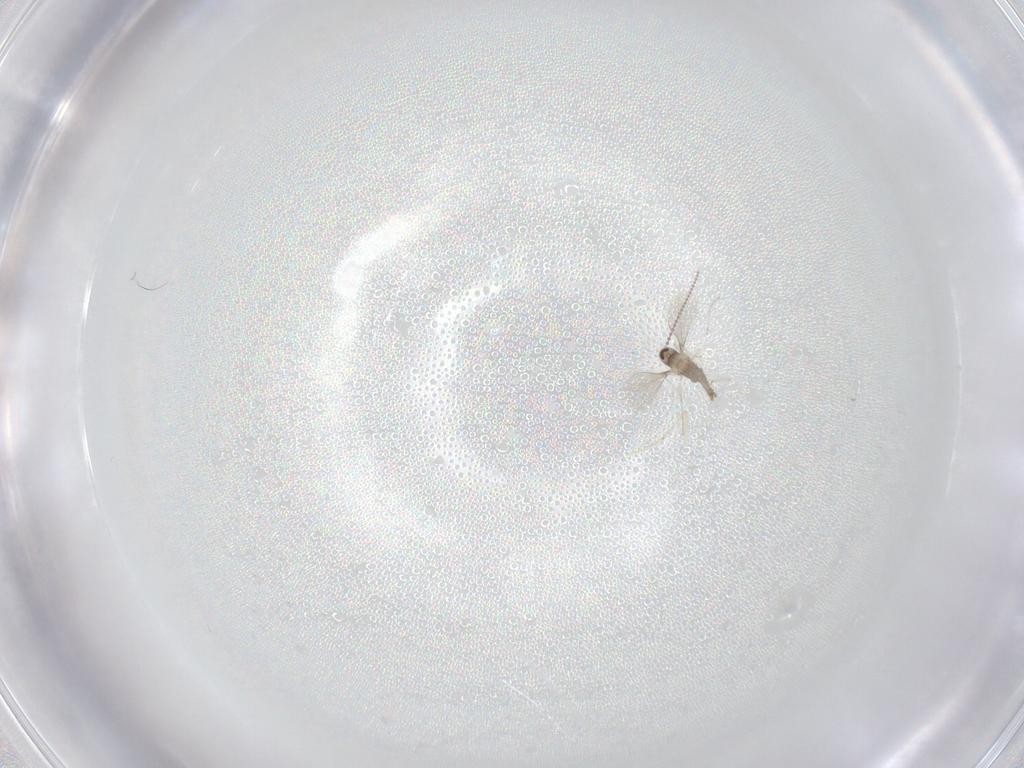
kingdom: Animalia
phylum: Arthropoda
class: Insecta
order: Diptera
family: Cecidomyiidae
